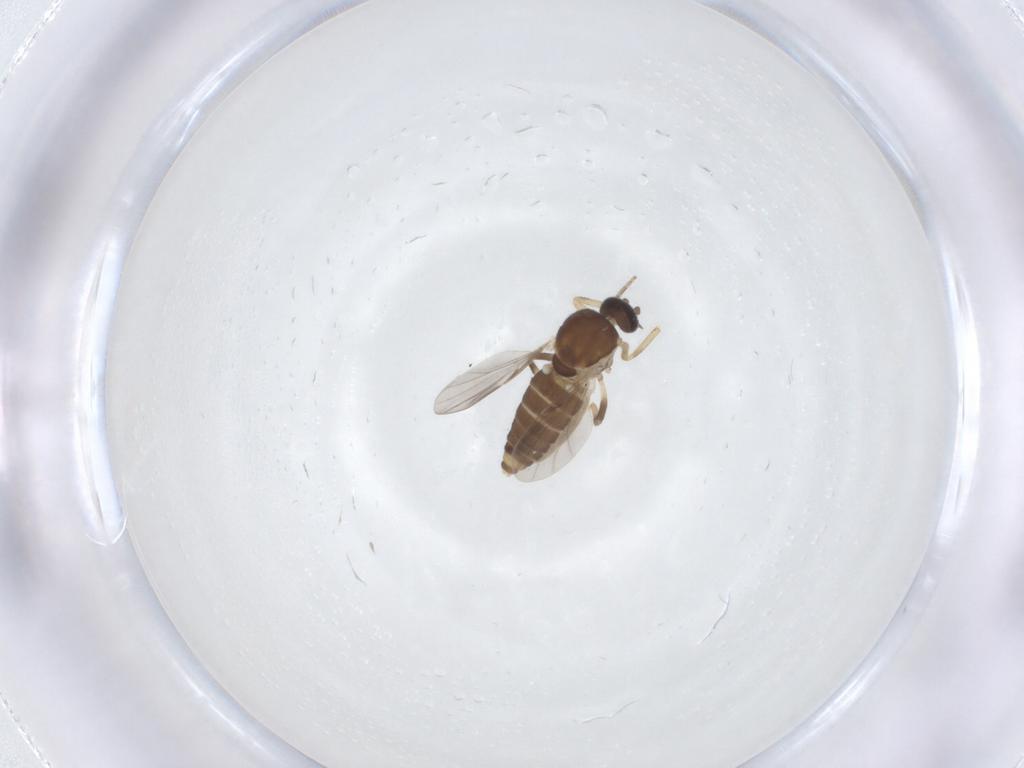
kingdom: Animalia
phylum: Arthropoda
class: Insecta
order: Diptera
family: Ceratopogonidae
